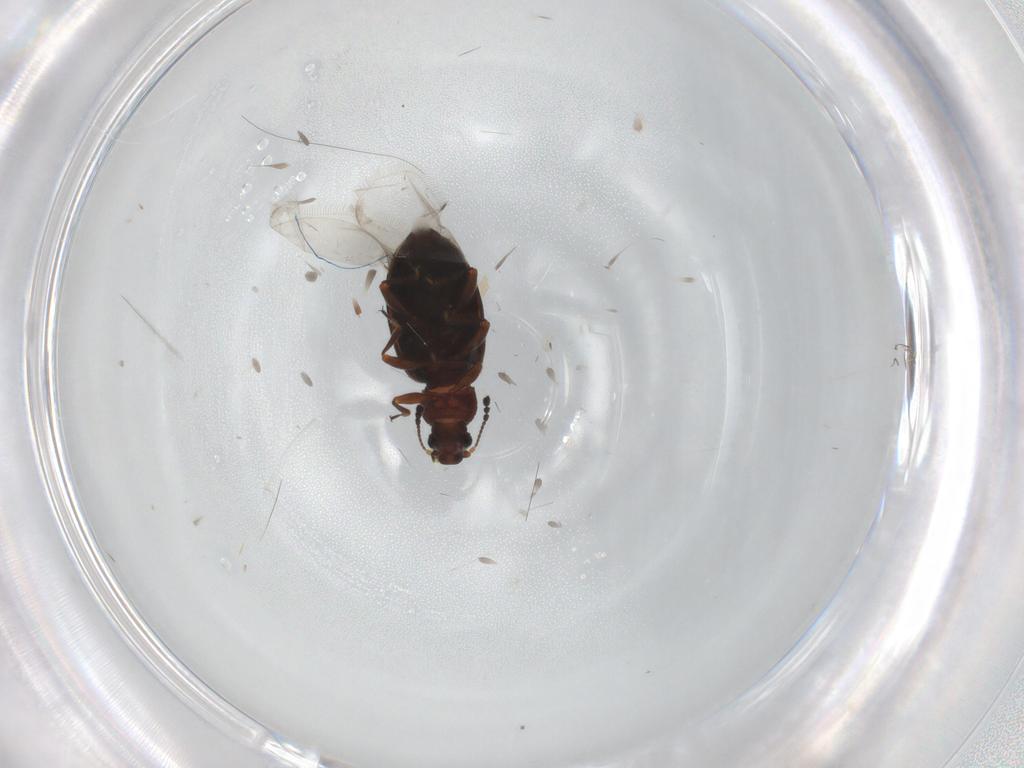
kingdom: Animalia
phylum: Arthropoda
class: Insecta
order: Coleoptera
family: Latridiidae
